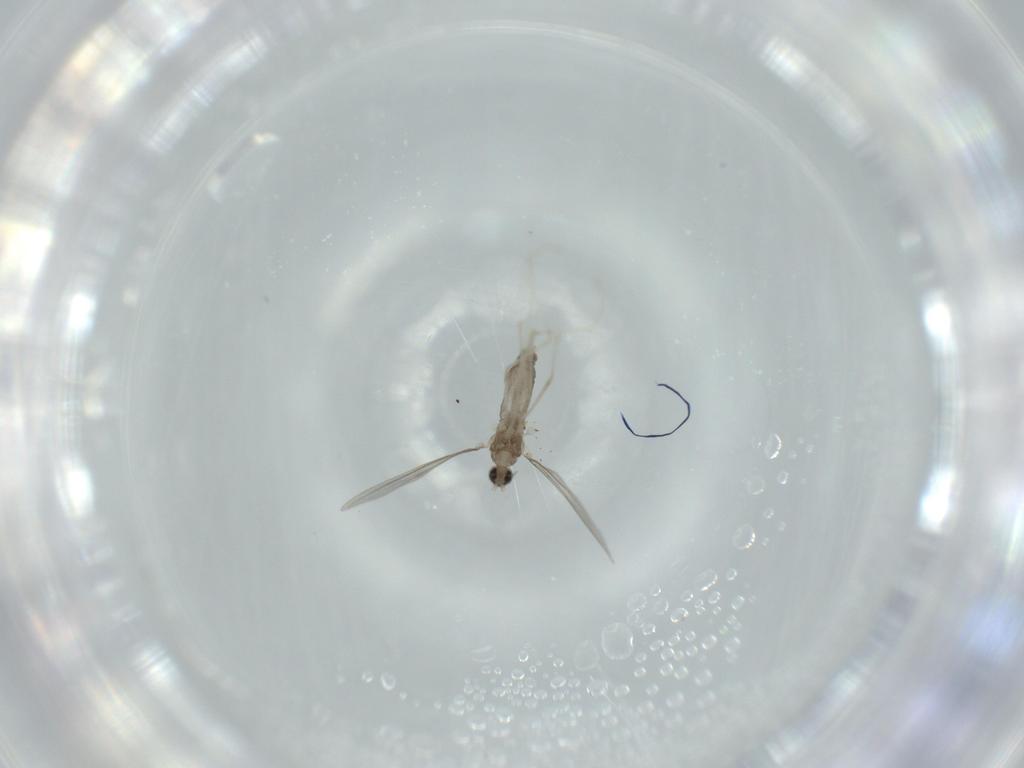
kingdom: Animalia
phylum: Arthropoda
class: Insecta
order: Diptera
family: Cecidomyiidae
